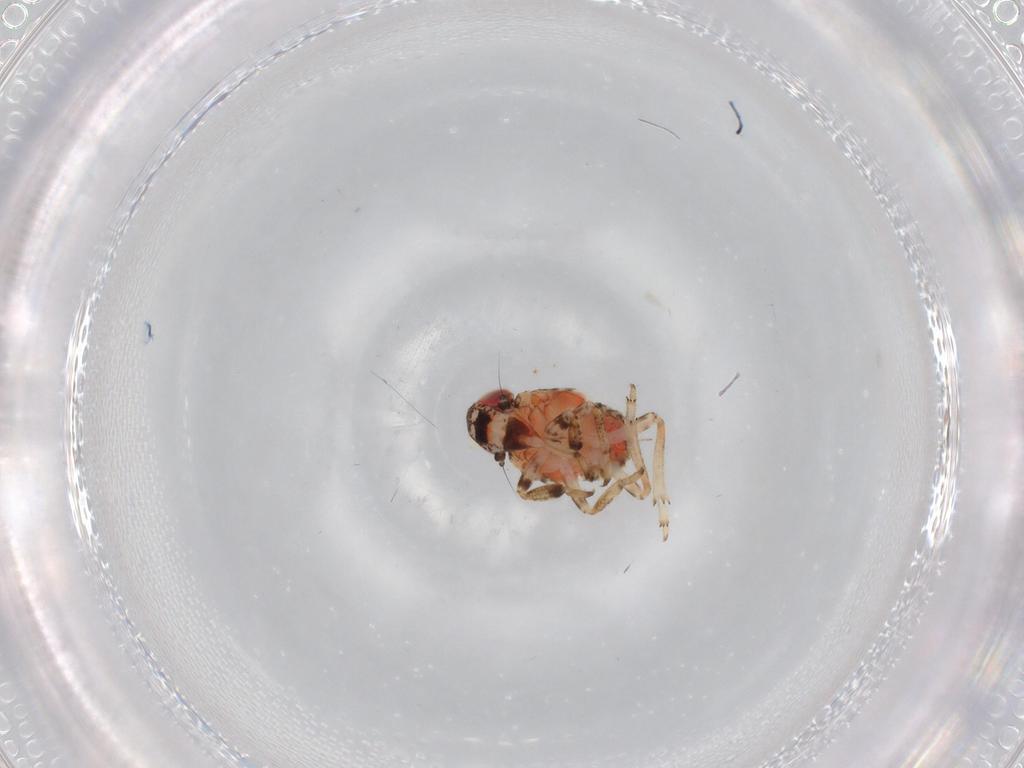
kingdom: Animalia
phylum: Arthropoda
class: Insecta
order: Hemiptera
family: Issidae
